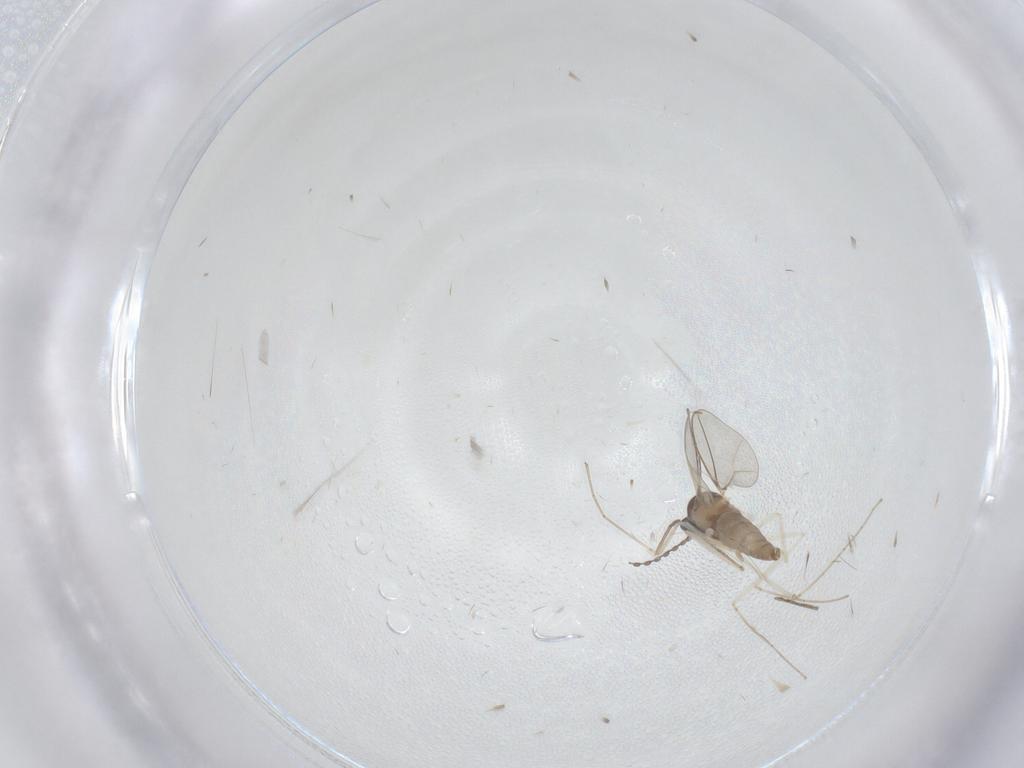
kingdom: Animalia
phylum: Arthropoda
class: Insecta
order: Diptera
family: Cecidomyiidae
